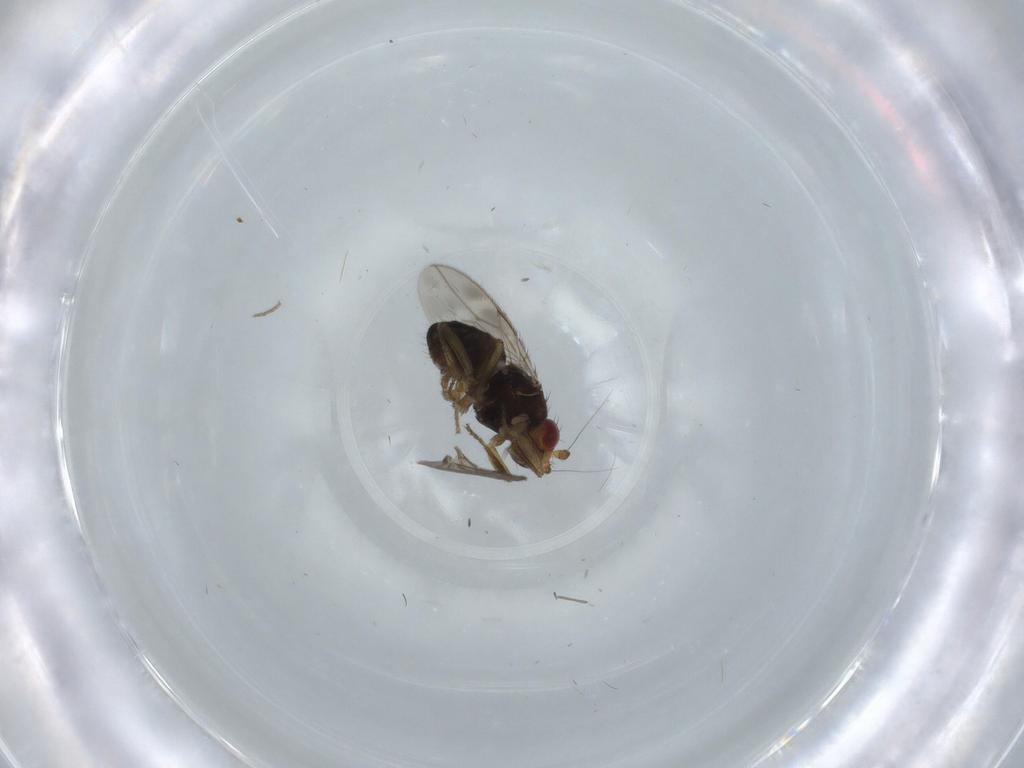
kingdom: Animalia
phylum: Arthropoda
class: Insecta
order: Diptera
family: Sphaeroceridae
